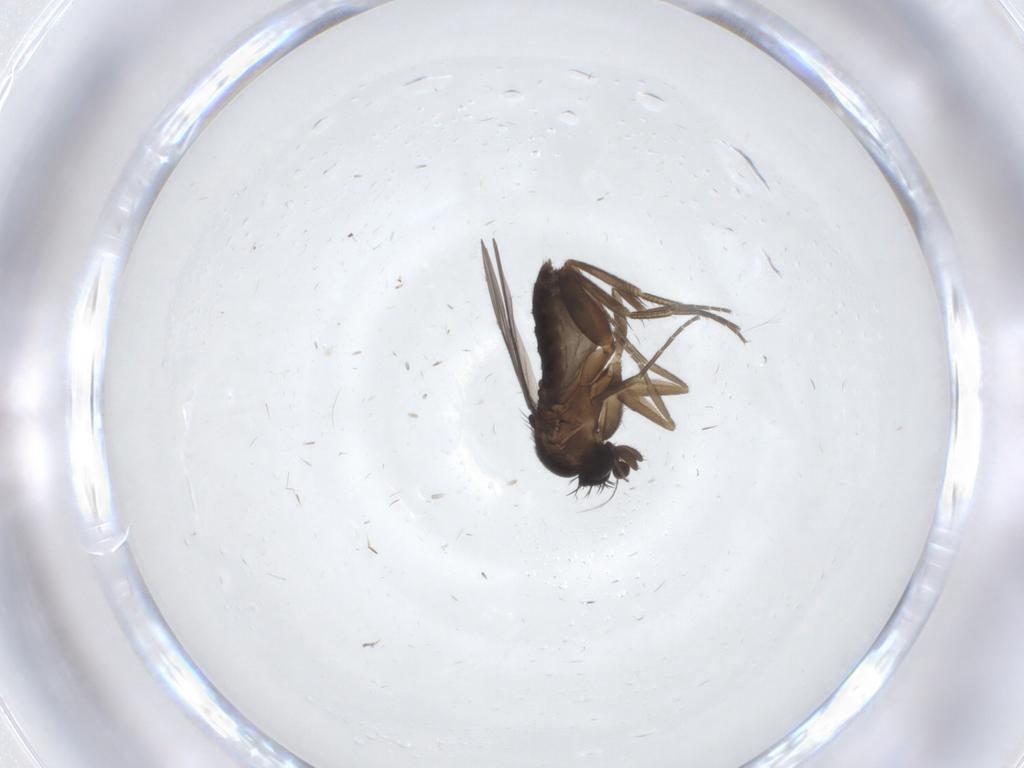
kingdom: Animalia
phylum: Arthropoda
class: Insecta
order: Diptera
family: Phoridae
